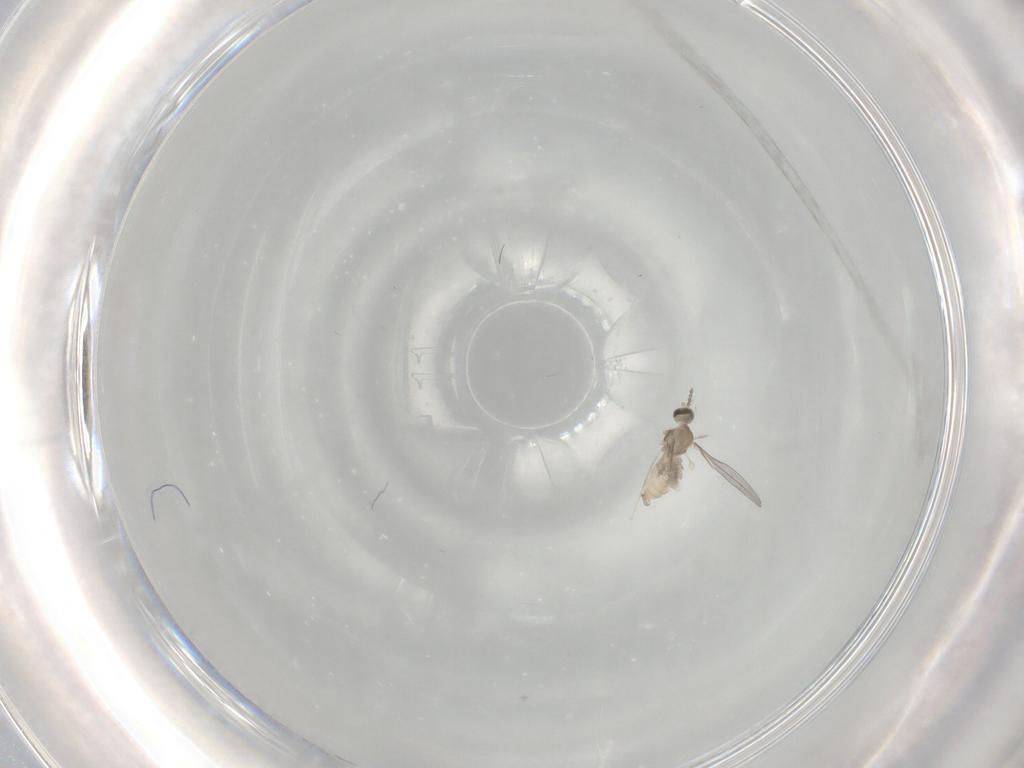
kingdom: Animalia
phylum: Arthropoda
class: Insecta
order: Diptera
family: Cecidomyiidae
